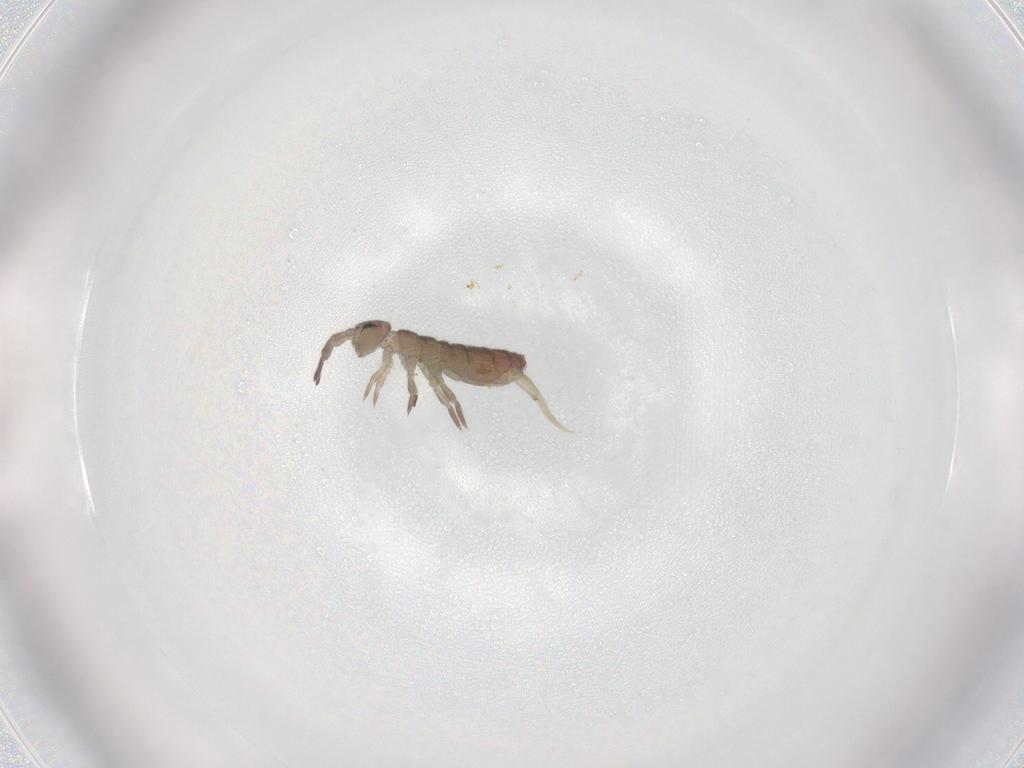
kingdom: Animalia
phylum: Arthropoda
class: Collembola
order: Entomobryomorpha
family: Isotomidae
